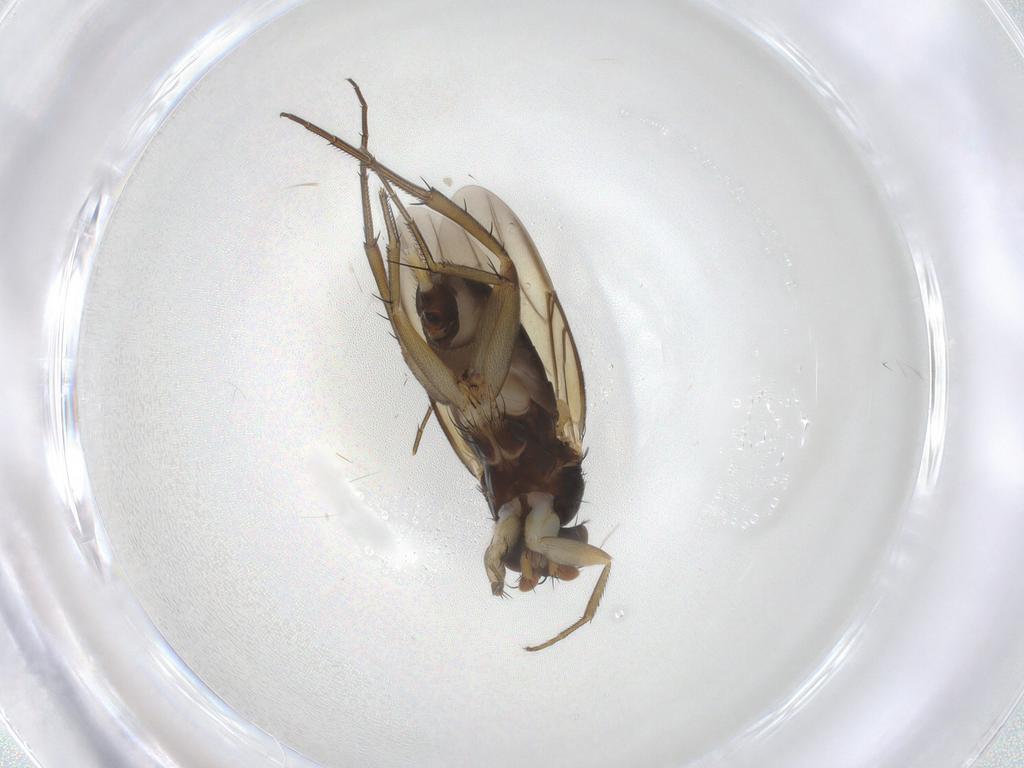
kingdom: Animalia
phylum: Arthropoda
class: Insecta
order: Diptera
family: Phoridae
